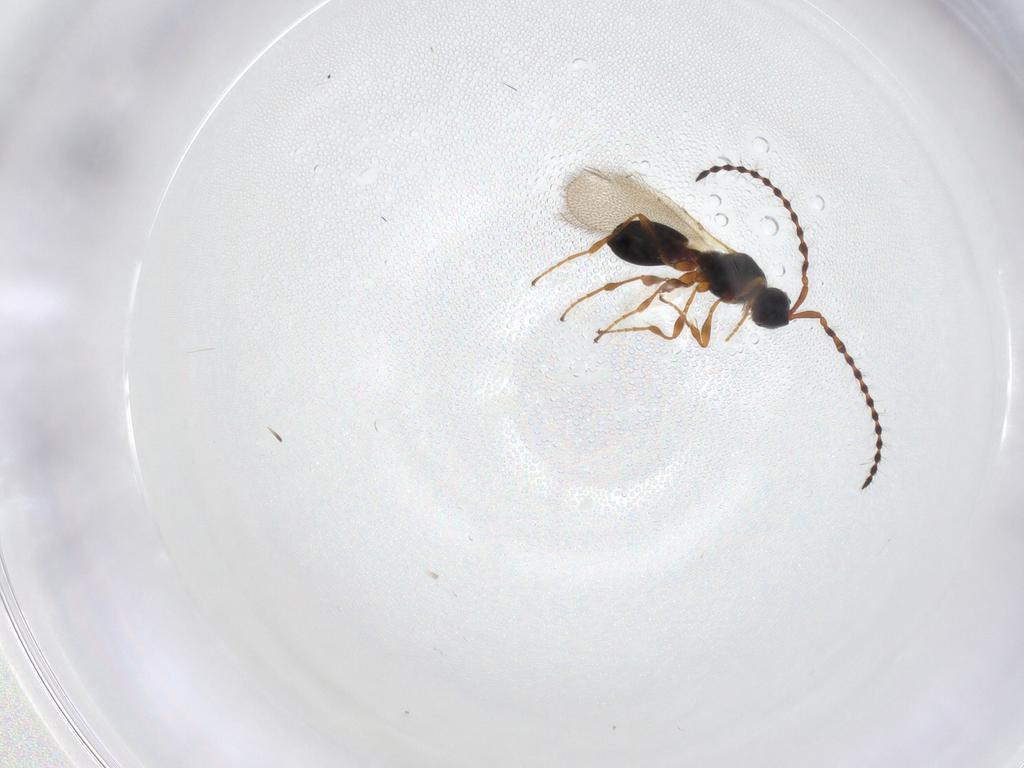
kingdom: Animalia
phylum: Arthropoda
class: Insecta
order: Hymenoptera
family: Diapriidae
